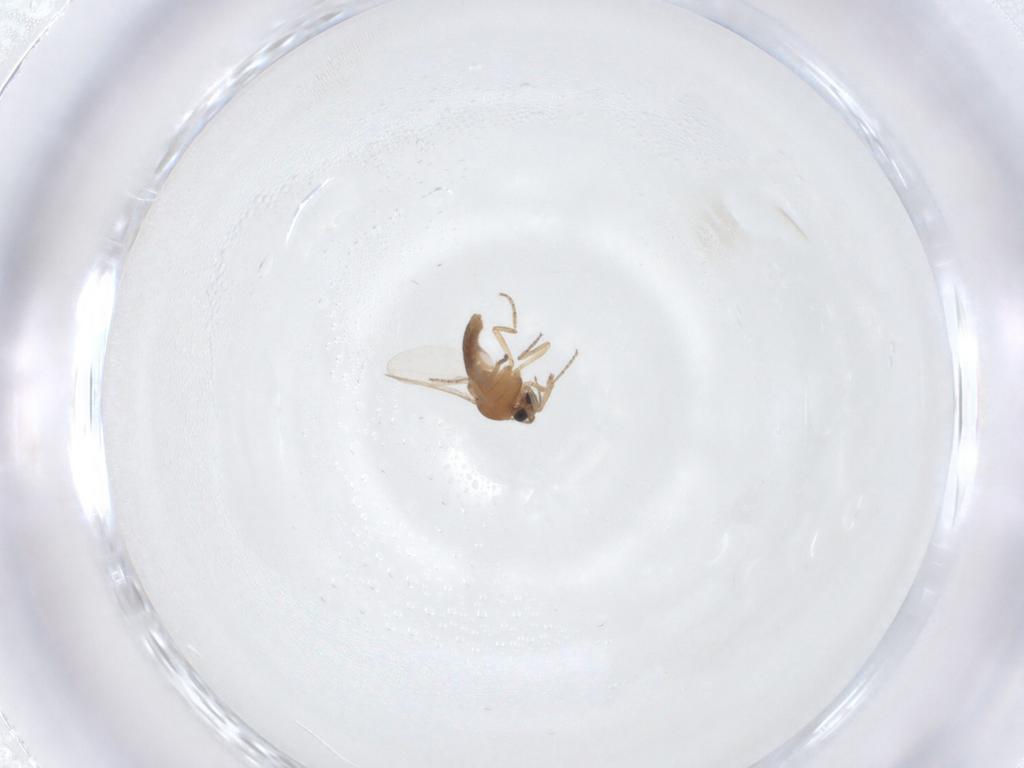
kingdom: Animalia
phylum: Arthropoda
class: Insecta
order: Diptera
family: Ceratopogonidae
